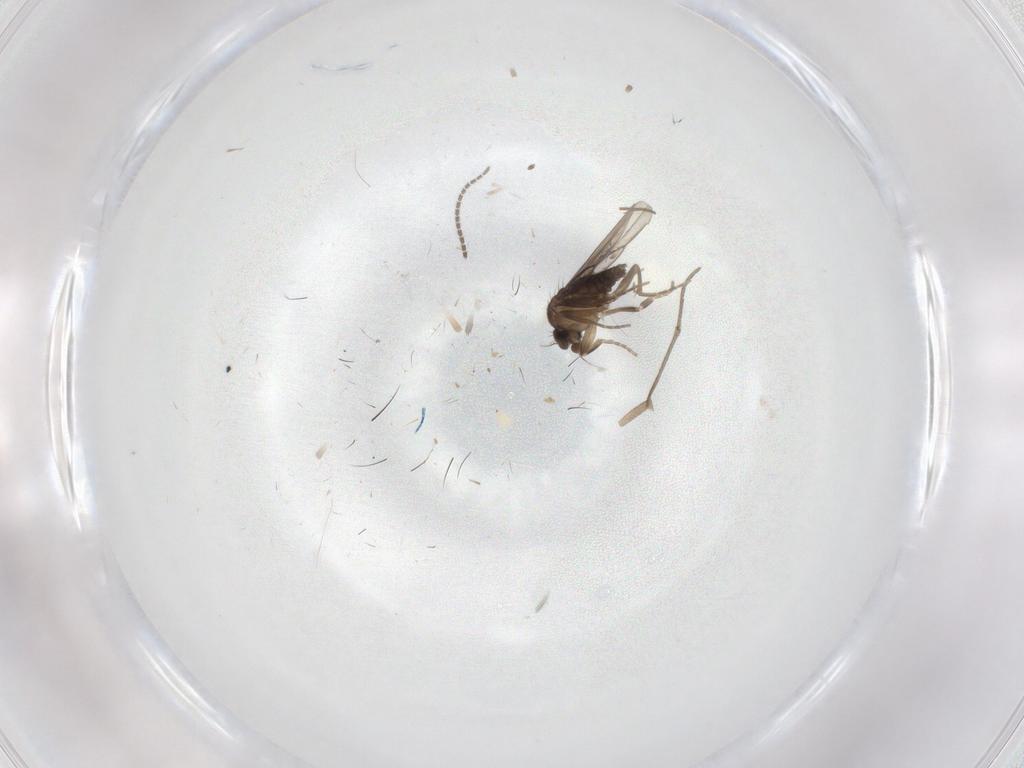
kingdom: Animalia
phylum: Arthropoda
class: Insecta
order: Diptera
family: Sciaridae
